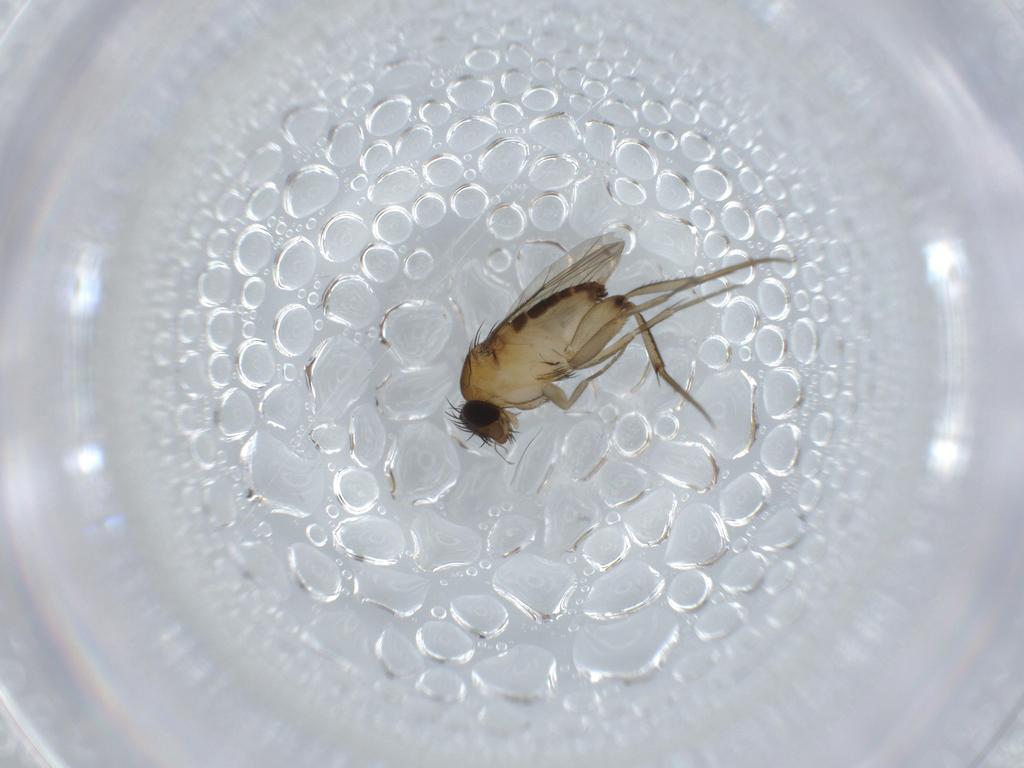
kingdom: Animalia
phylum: Arthropoda
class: Insecta
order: Diptera
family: Phoridae
